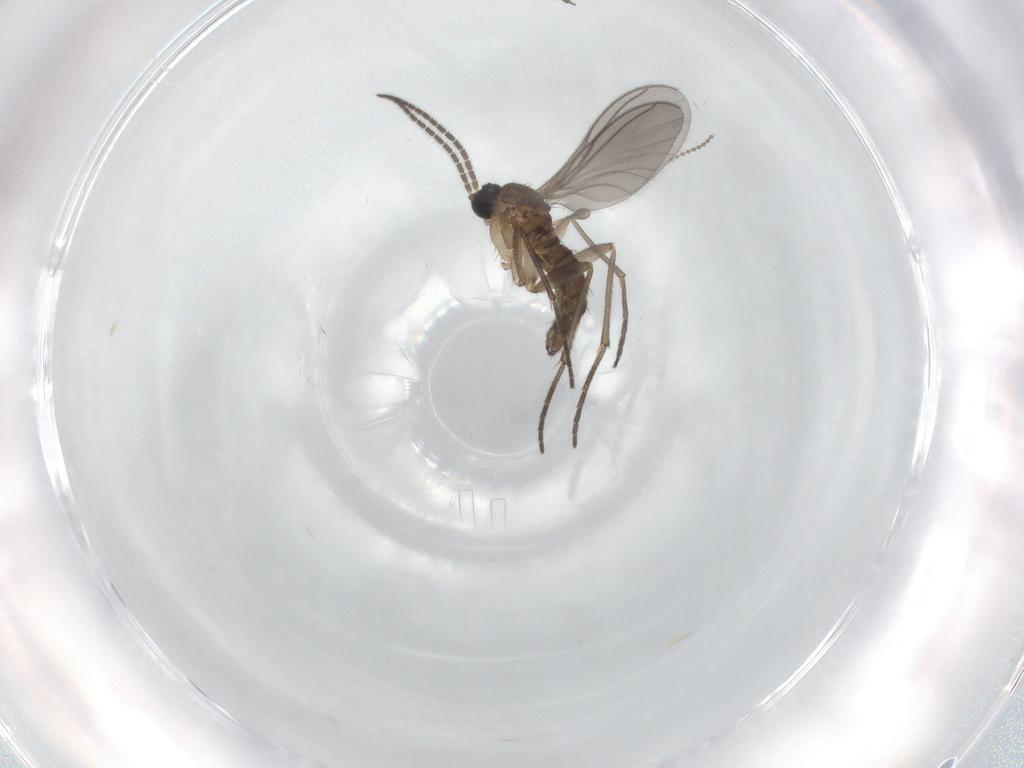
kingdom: Animalia
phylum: Arthropoda
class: Insecta
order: Diptera
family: Sciaridae
